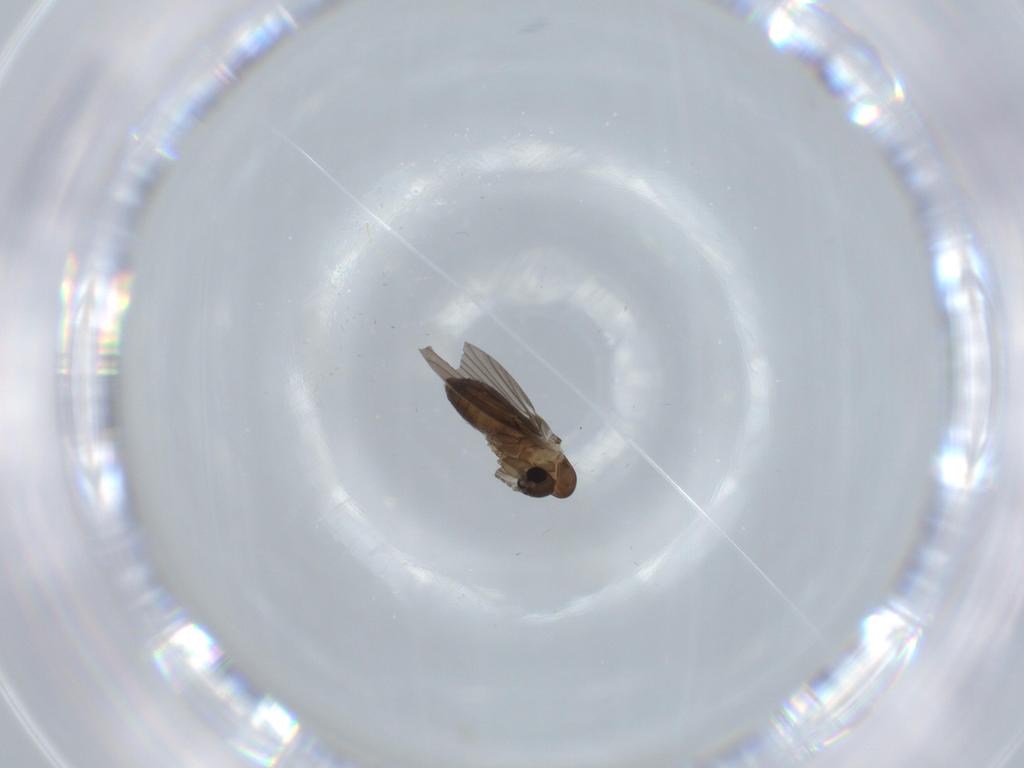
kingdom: Animalia
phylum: Arthropoda
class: Insecta
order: Diptera
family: Psychodidae
